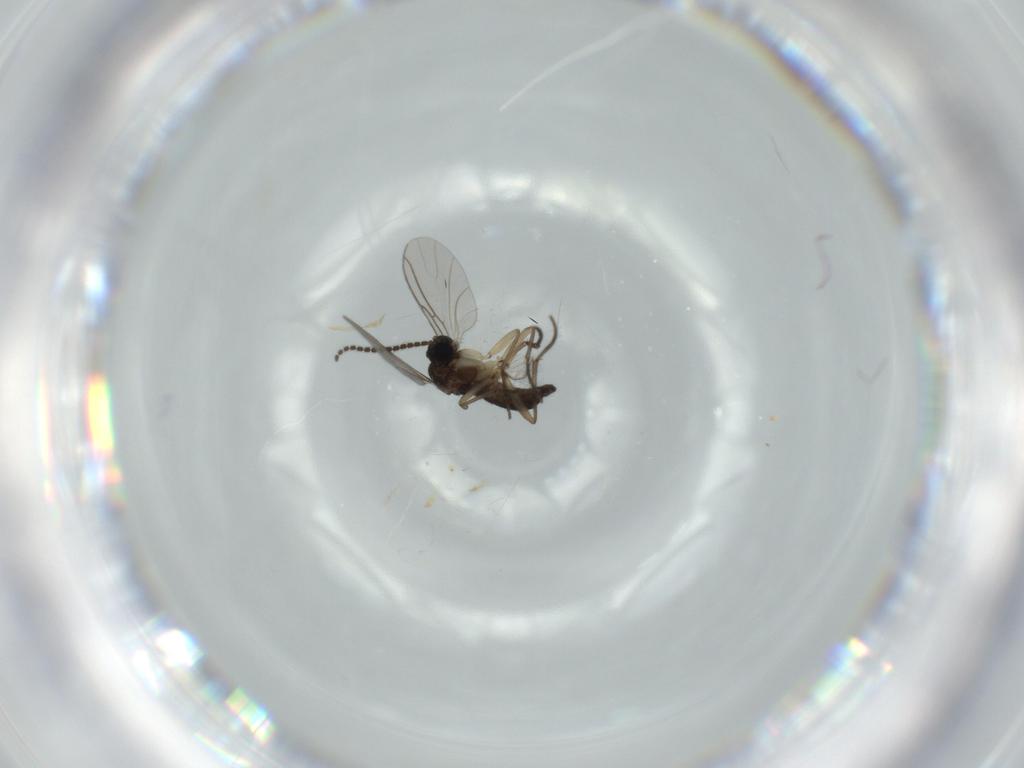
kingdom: Animalia
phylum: Arthropoda
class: Insecta
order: Diptera
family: Sciaridae
